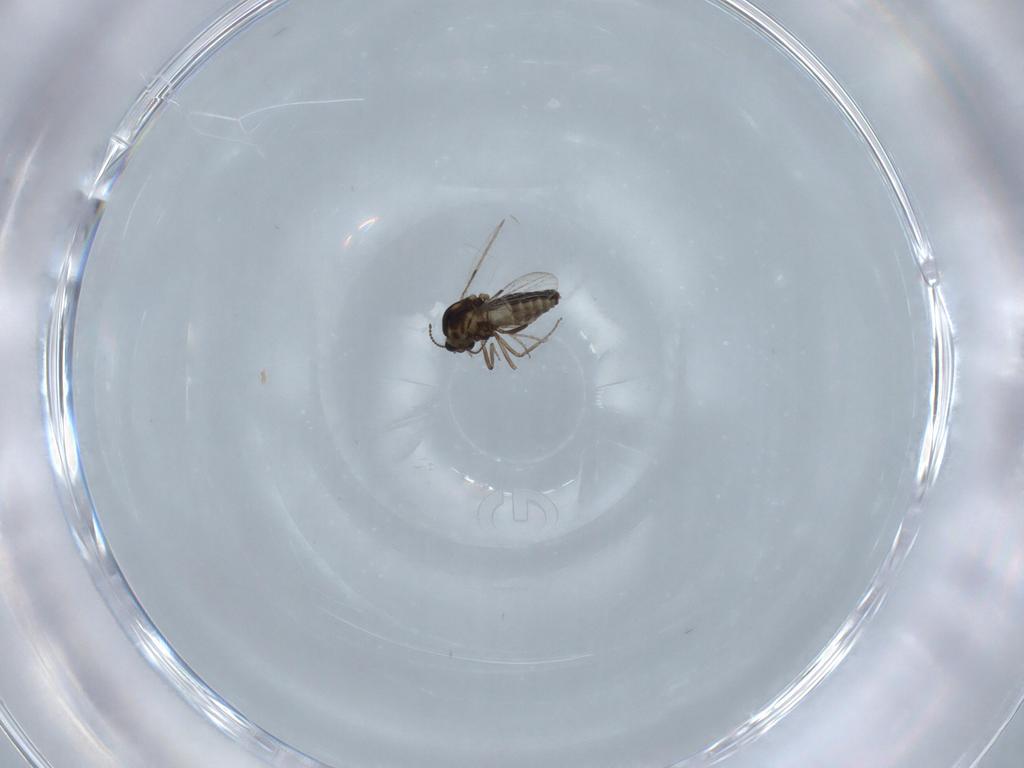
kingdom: Animalia
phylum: Arthropoda
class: Insecta
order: Diptera
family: Ceratopogonidae
